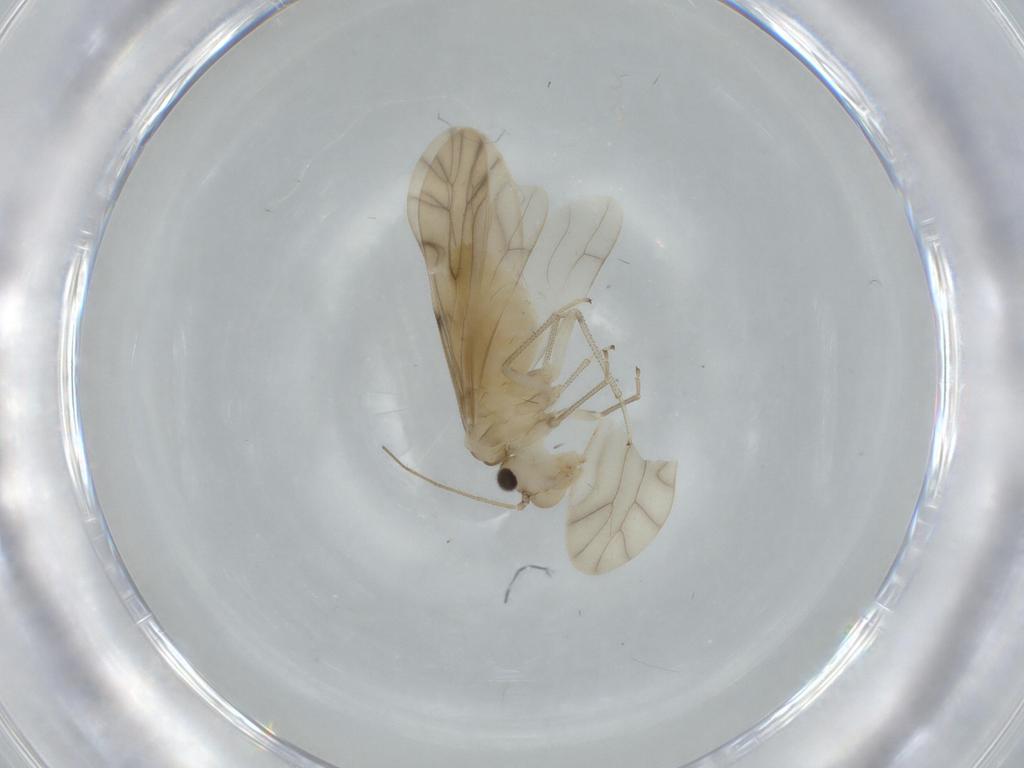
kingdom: Animalia
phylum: Arthropoda
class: Insecta
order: Psocodea
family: Caeciliusidae
